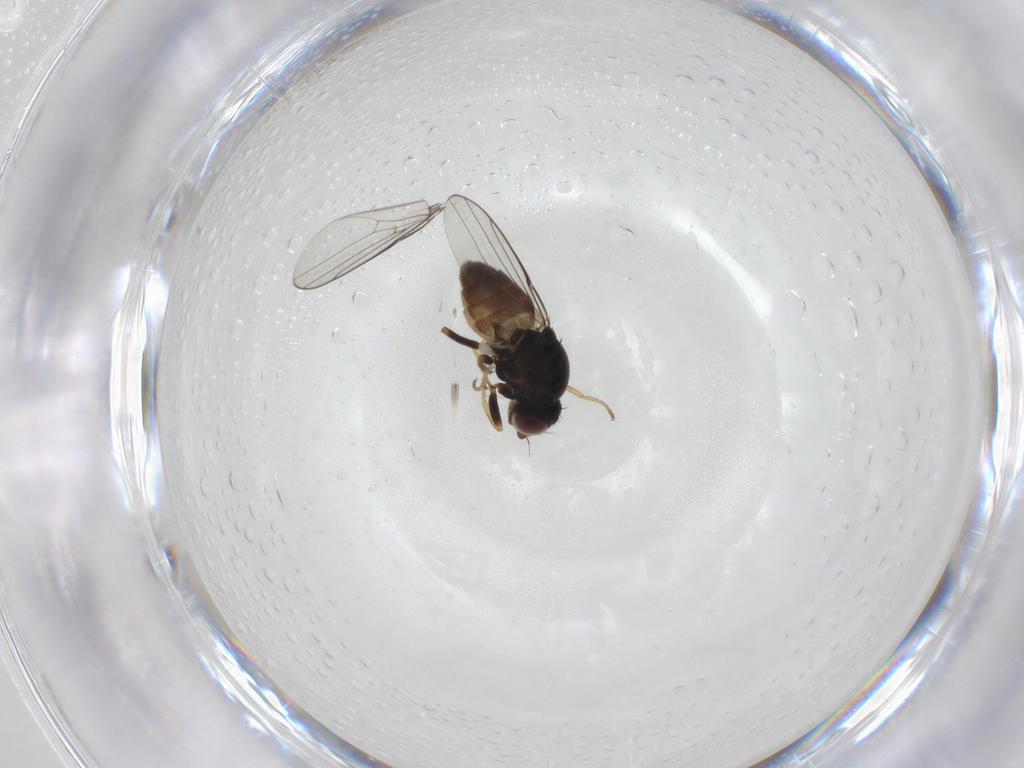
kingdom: Animalia
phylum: Arthropoda
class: Insecta
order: Diptera
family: Chloropidae
